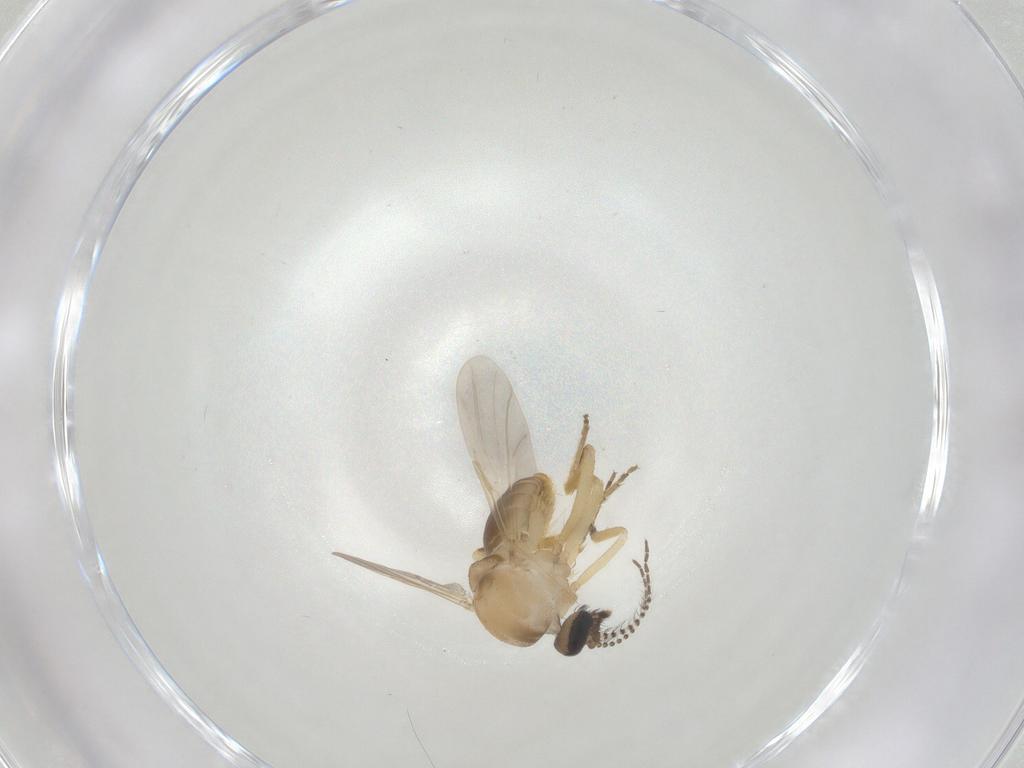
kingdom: Animalia
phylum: Arthropoda
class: Insecta
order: Diptera
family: Ceratopogonidae
